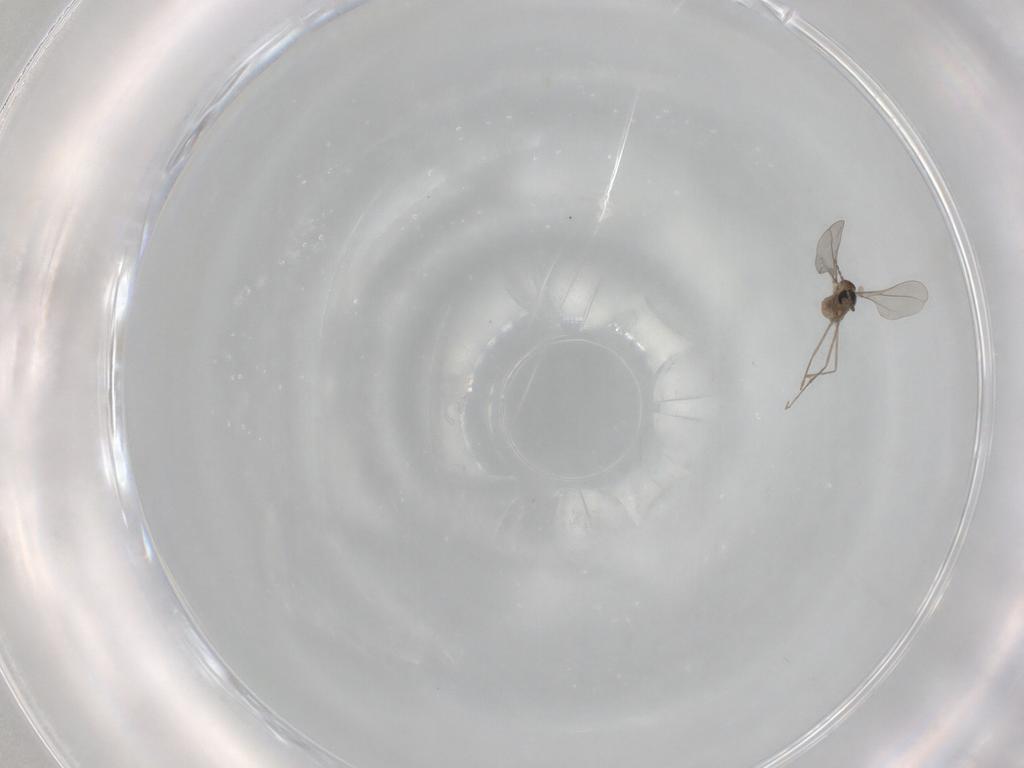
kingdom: Animalia
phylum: Arthropoda
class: Insecta
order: Diptera
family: Cecidomyiidae
